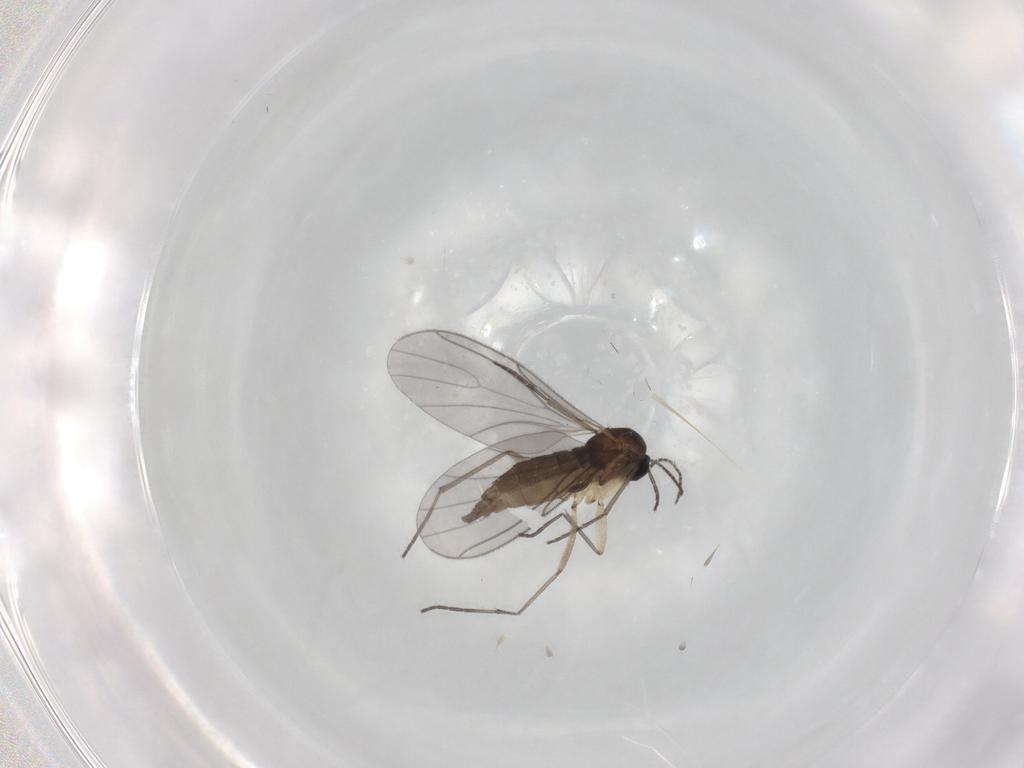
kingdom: Animalia
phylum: Arthropoda
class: Insecta
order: Diptera
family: Sciaridae
